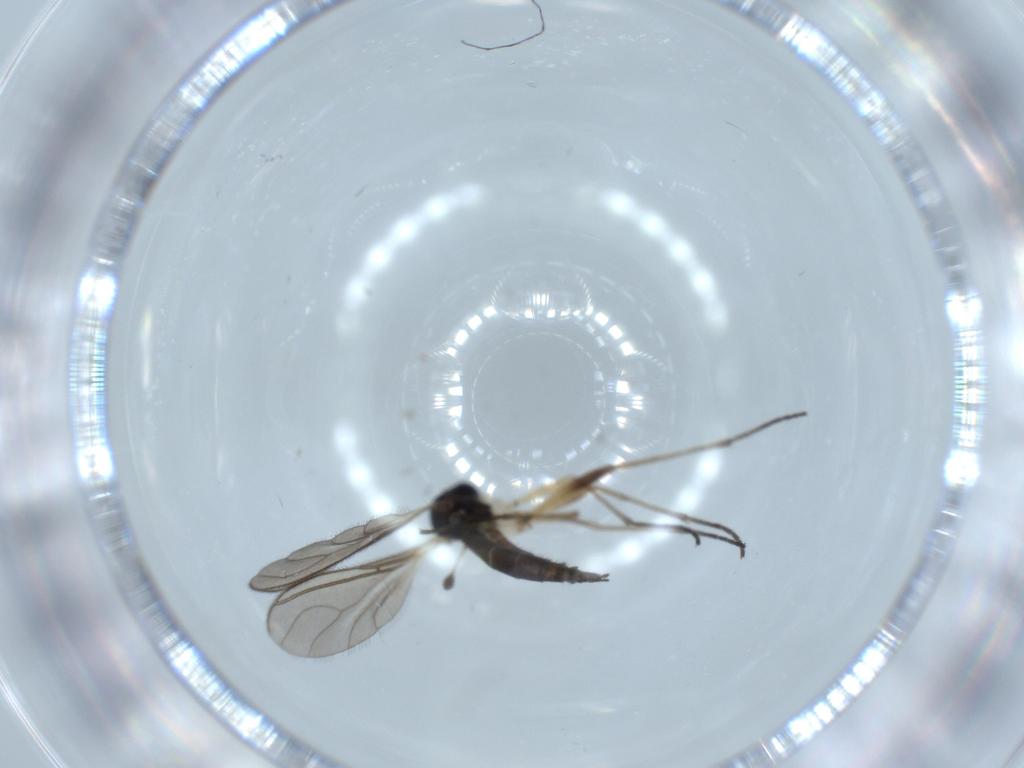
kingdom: Animalia
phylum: Arthropoda
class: Insecta
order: Diptera
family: Sciaridae
